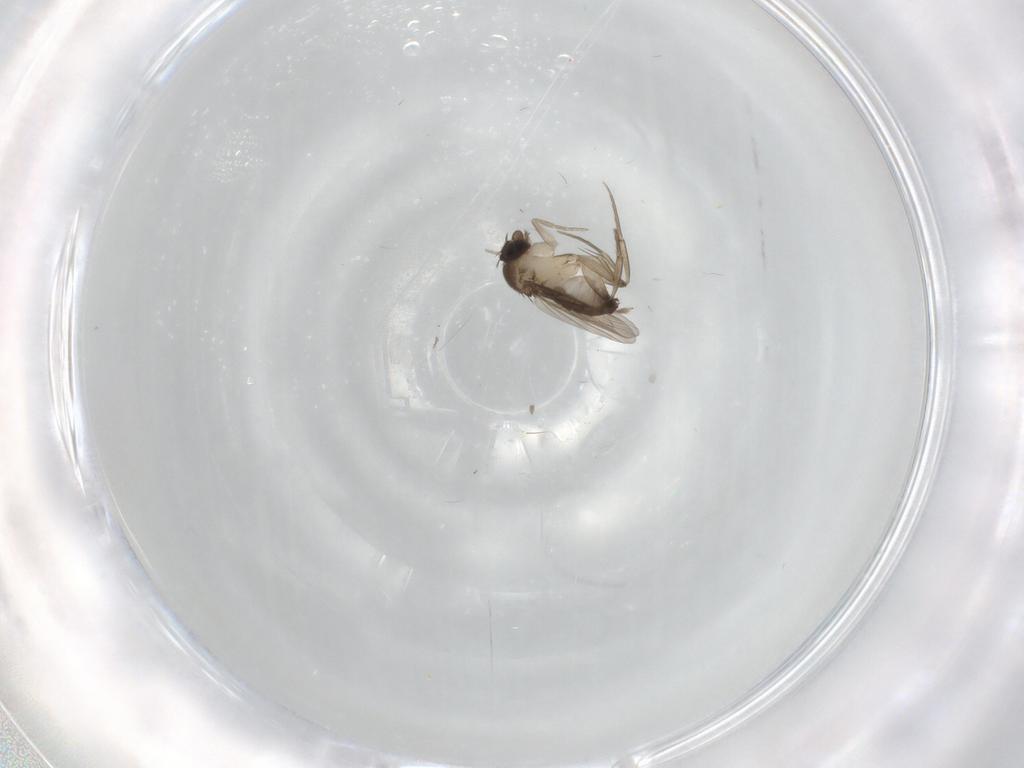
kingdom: Animalia
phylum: Arthropoda
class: Insecta
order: Diptera
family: Phoridae
